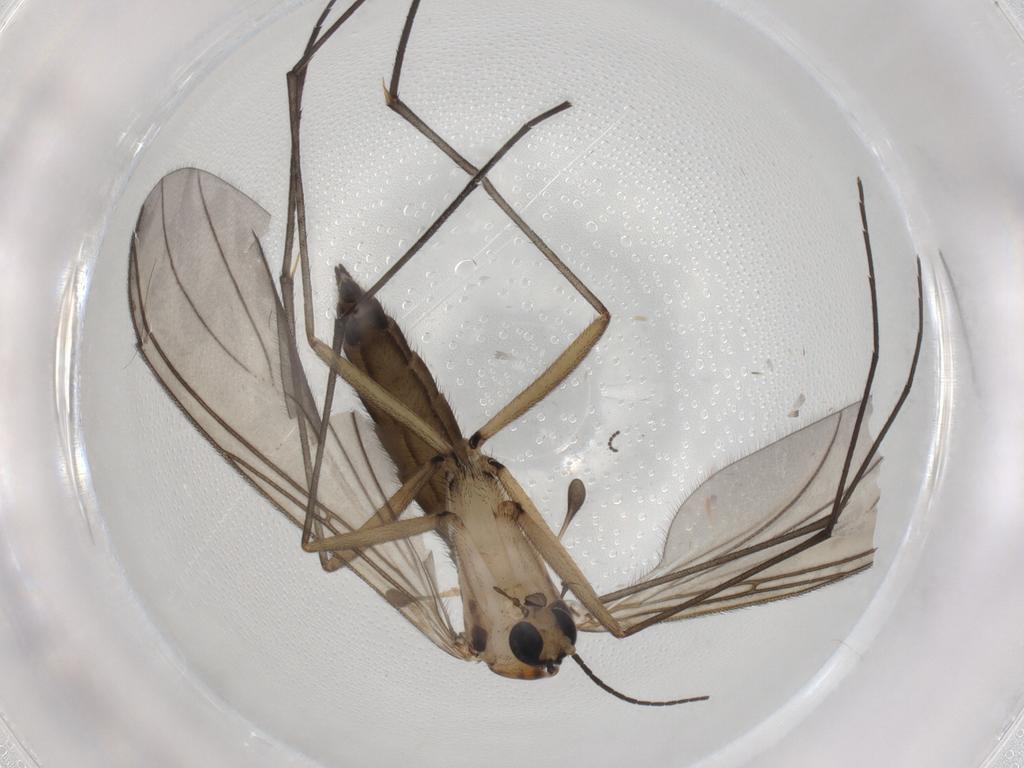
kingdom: Animalia
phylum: Arthropoda
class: Insecta
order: Diptera
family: Sciaridae
